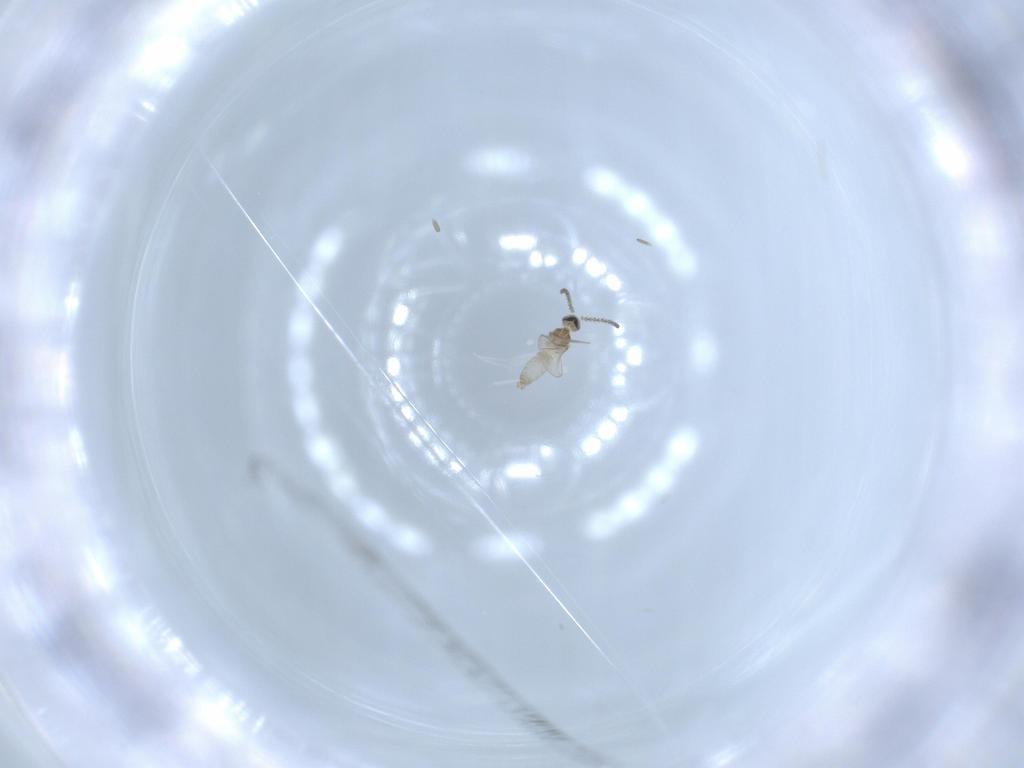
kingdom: Animalia
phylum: Arthropoda
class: Insecta
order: Diptera
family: Cecidomyiidae
